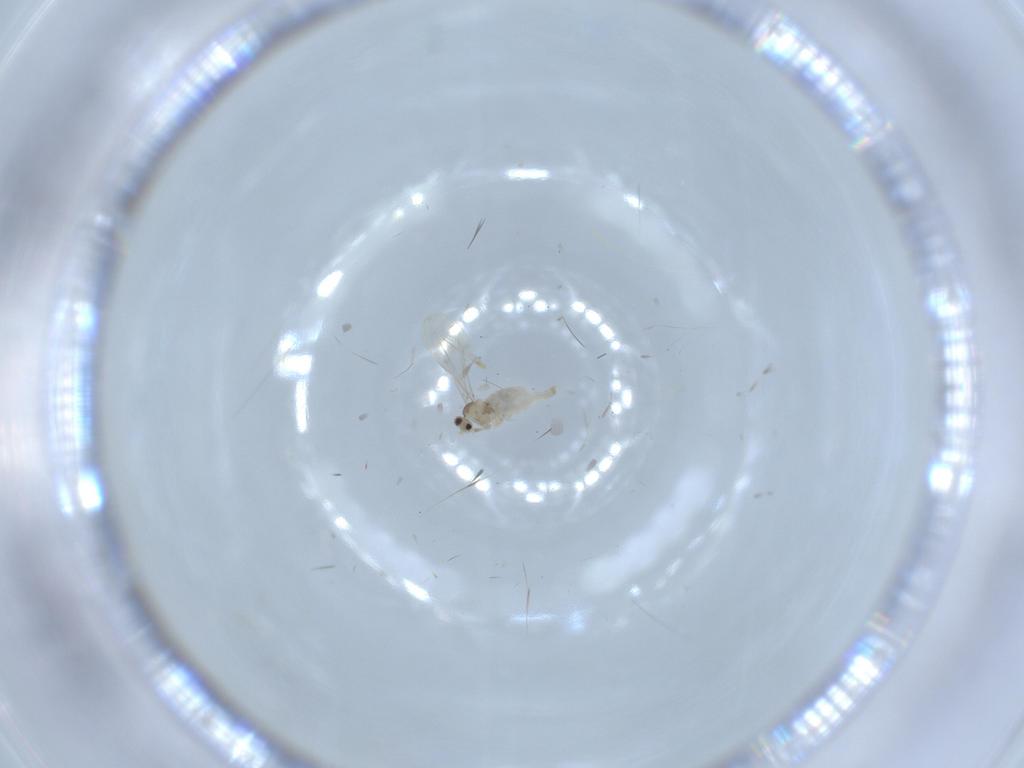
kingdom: Animalia
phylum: Arthropoda
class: Insecta
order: Diptera
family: Cecidomyiidae
